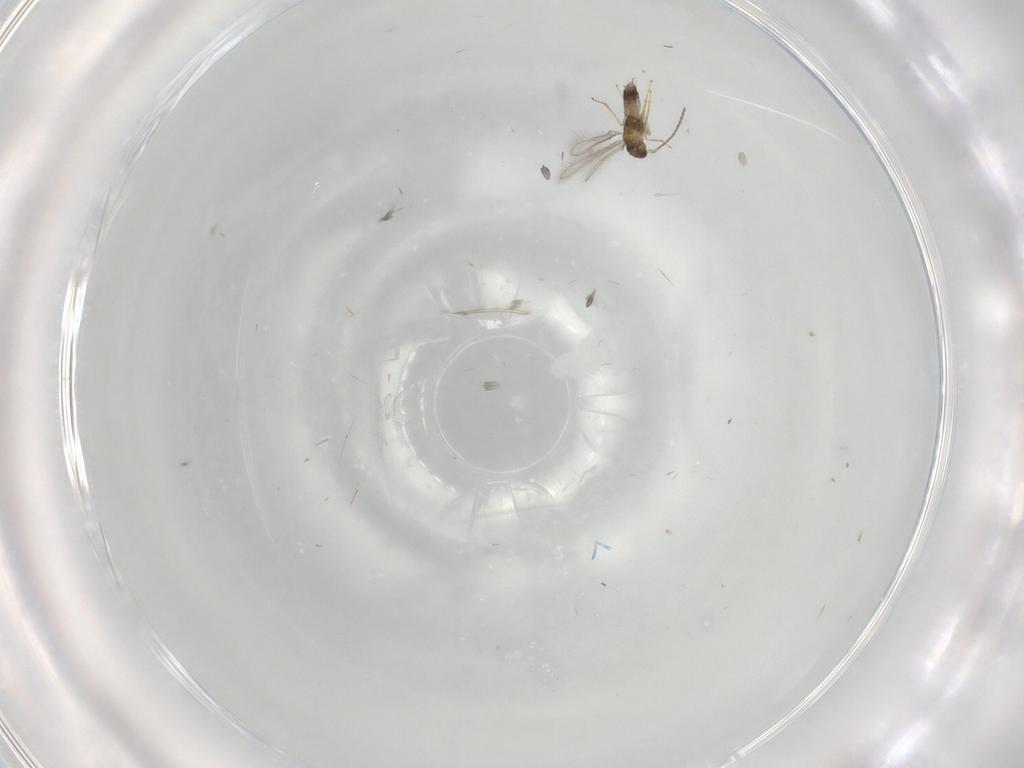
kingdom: Animalia
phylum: Arthropoda
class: Insecta
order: Hymenoptera
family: Mymaridae
